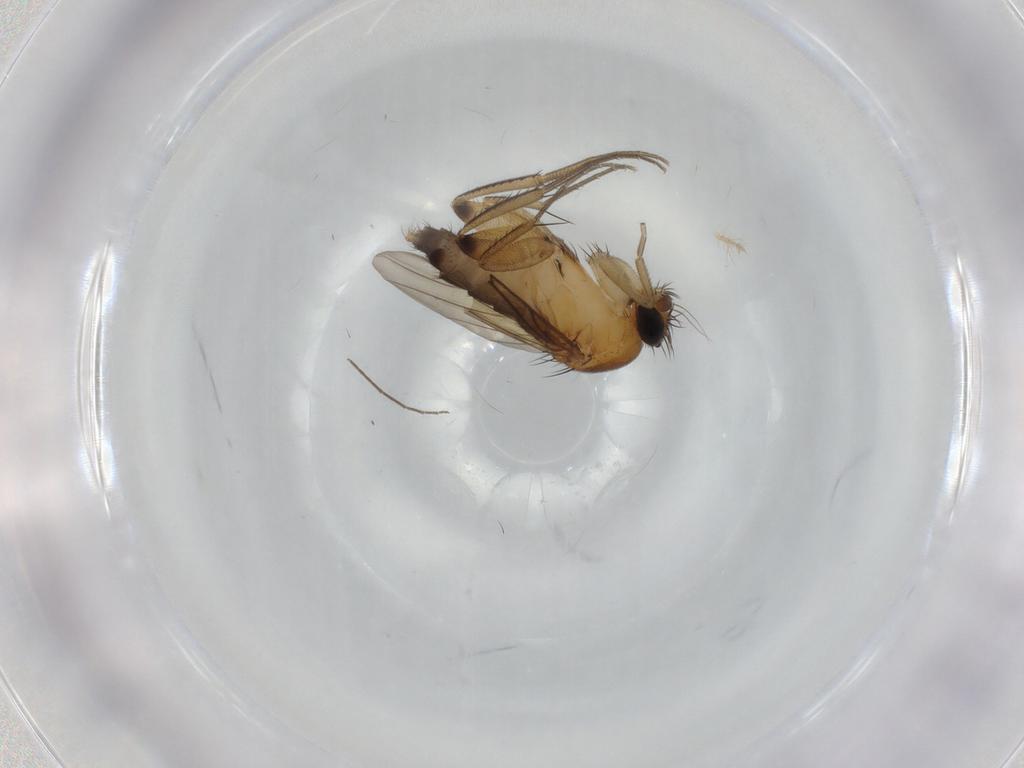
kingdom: Animalia
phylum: Arthropoda
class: Insecta
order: Diptera
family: Phoridae
